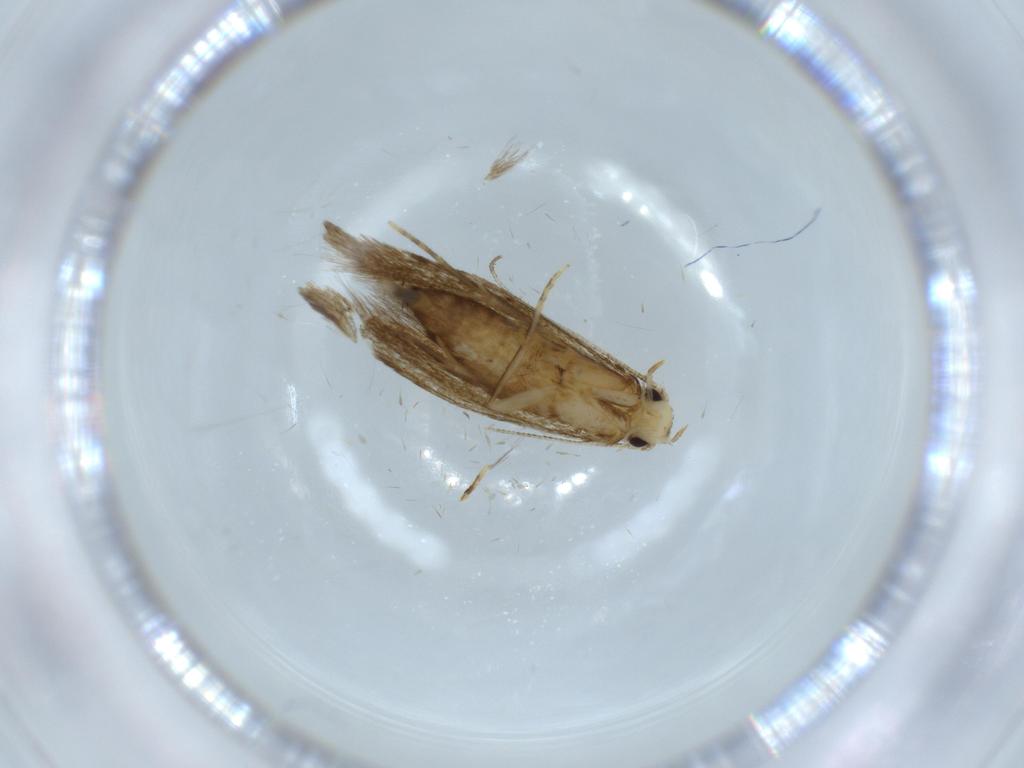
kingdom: Animalia
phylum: Arthropoda
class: Insecta
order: Lepidoptera
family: Tineidae
